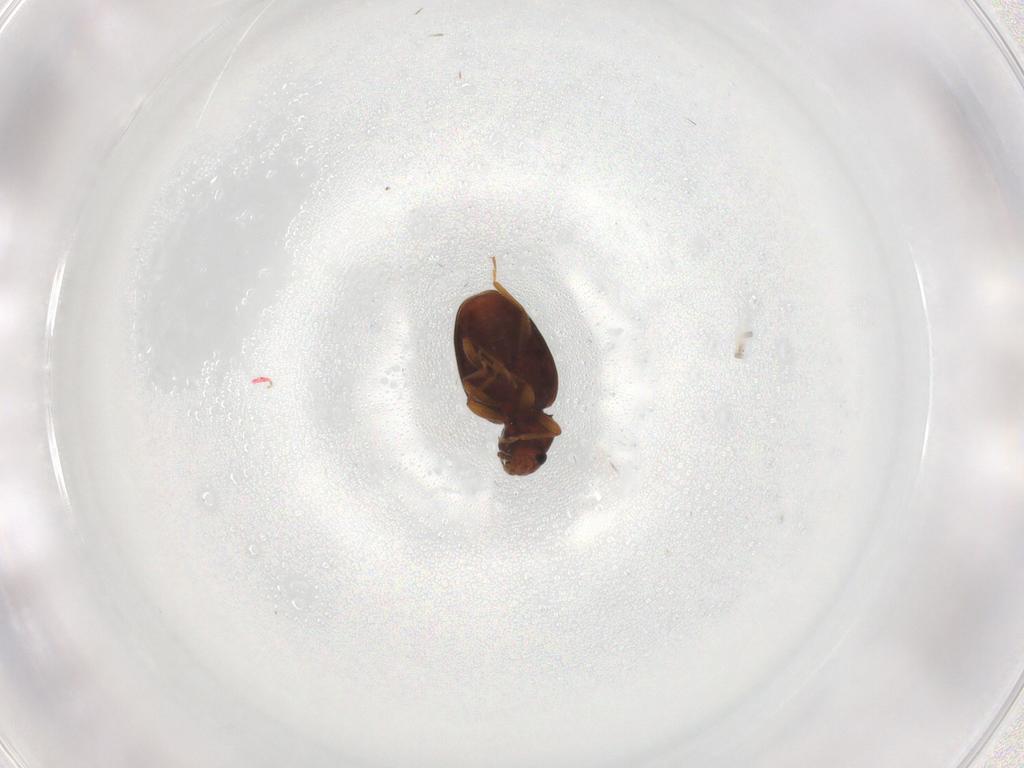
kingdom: Animalia
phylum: Arthropoda
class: Insecta
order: Coleoptera
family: Latridiidae
